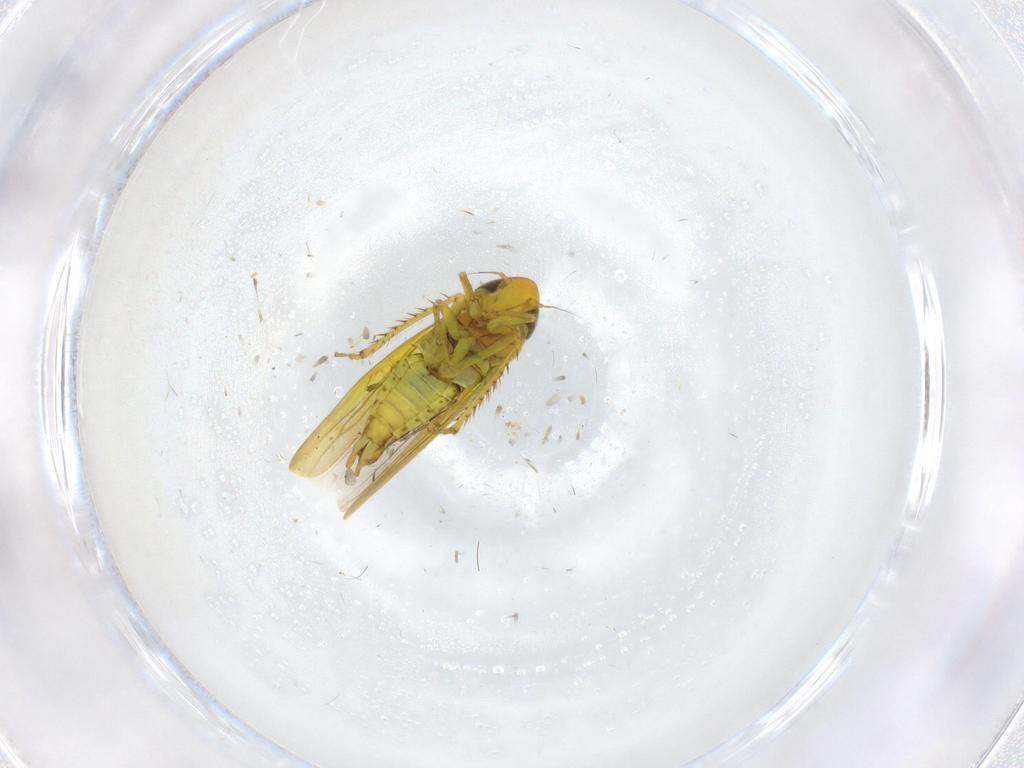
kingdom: Animalia
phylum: Arthropoda
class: Insecta
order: Hemiptera
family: Cicadellidae
